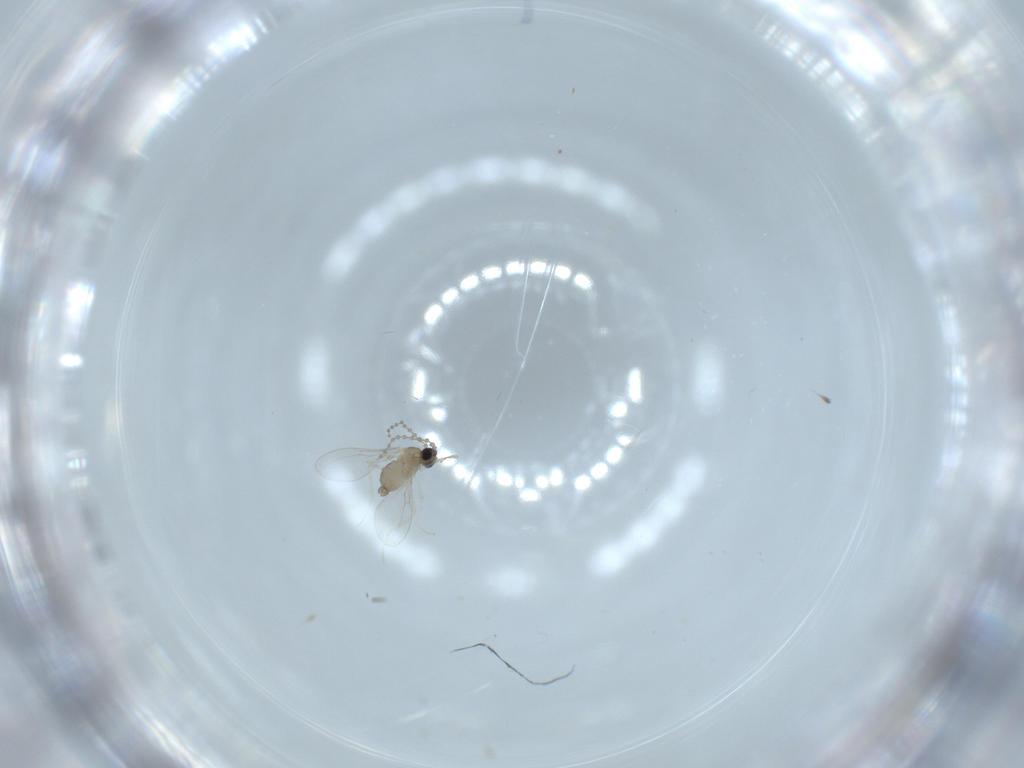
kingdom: Animalia
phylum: Arthropoda
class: Insecta
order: Diptera
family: Cecidomyiidae
